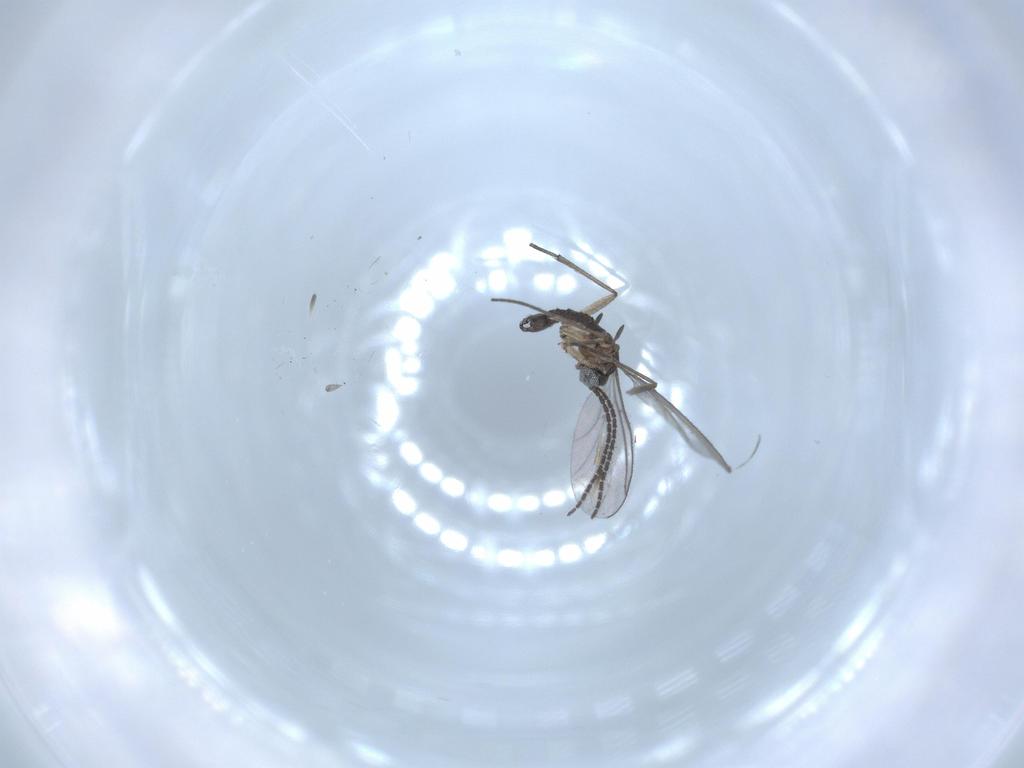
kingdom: Animalia
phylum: Arthropoda
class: Insecta
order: Diptera
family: Sciaridae
